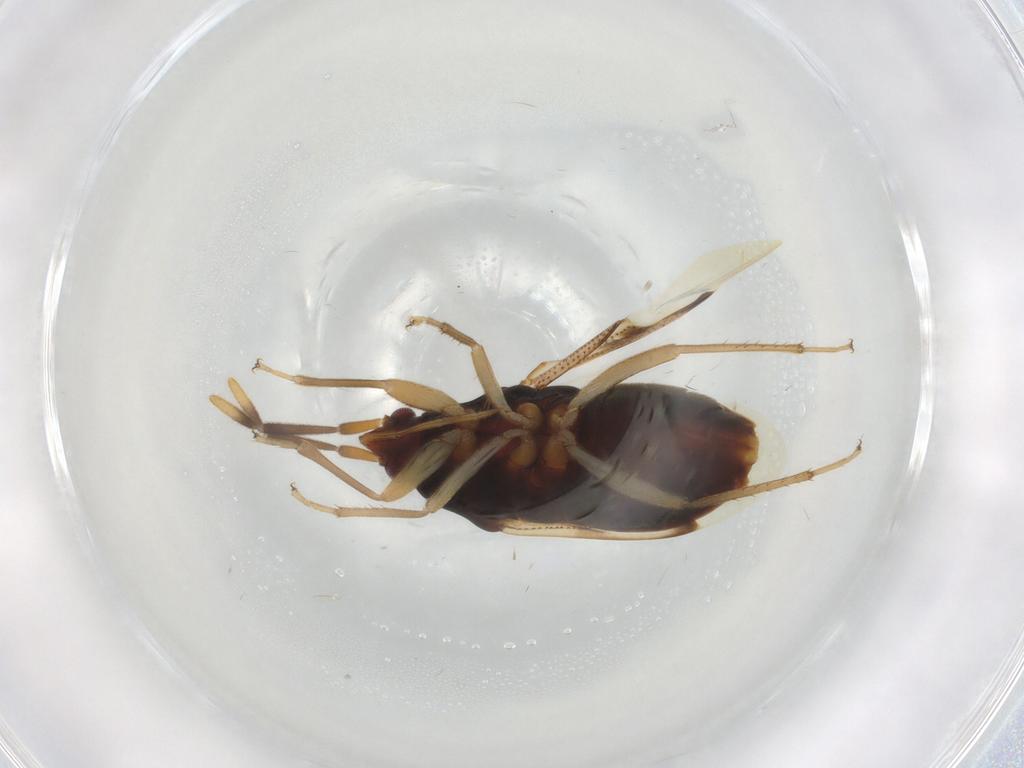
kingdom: Animalia
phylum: Arthropoda
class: Insecta
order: Hemiptera
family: Rhyparochromidae
